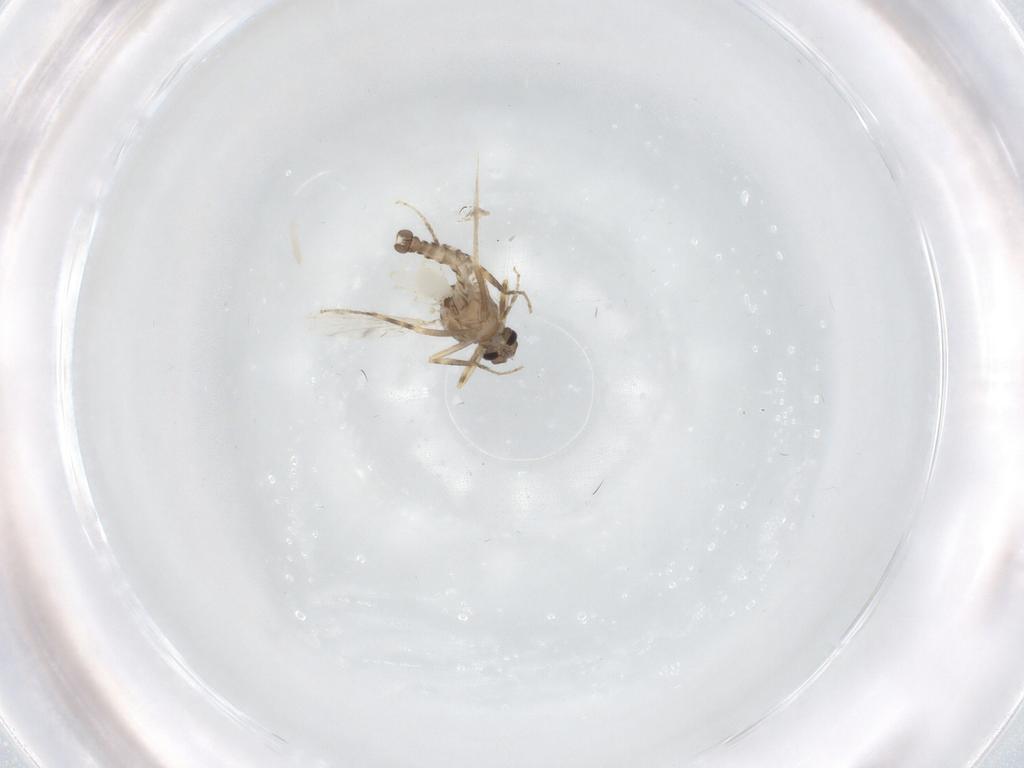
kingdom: Animalia
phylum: Arthropoda
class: Insecta
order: Diptera
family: Ceratopogonidae
